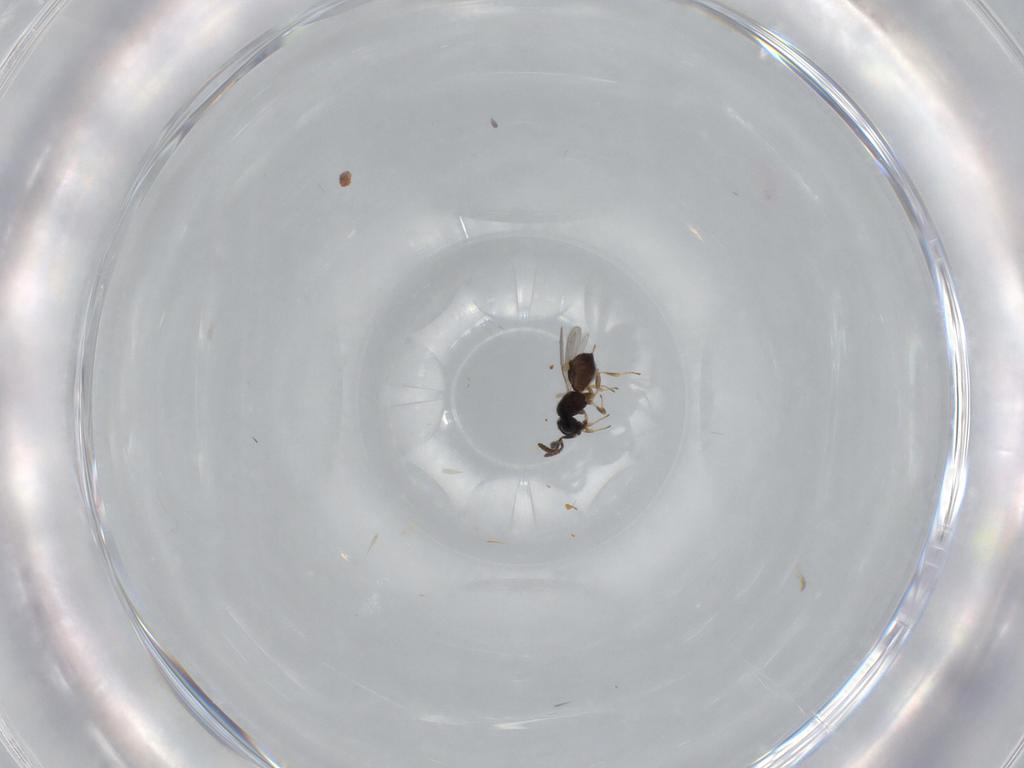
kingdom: Animalia
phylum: Arthropoda
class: Insecta
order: Hymenoptera
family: Scelionidae
